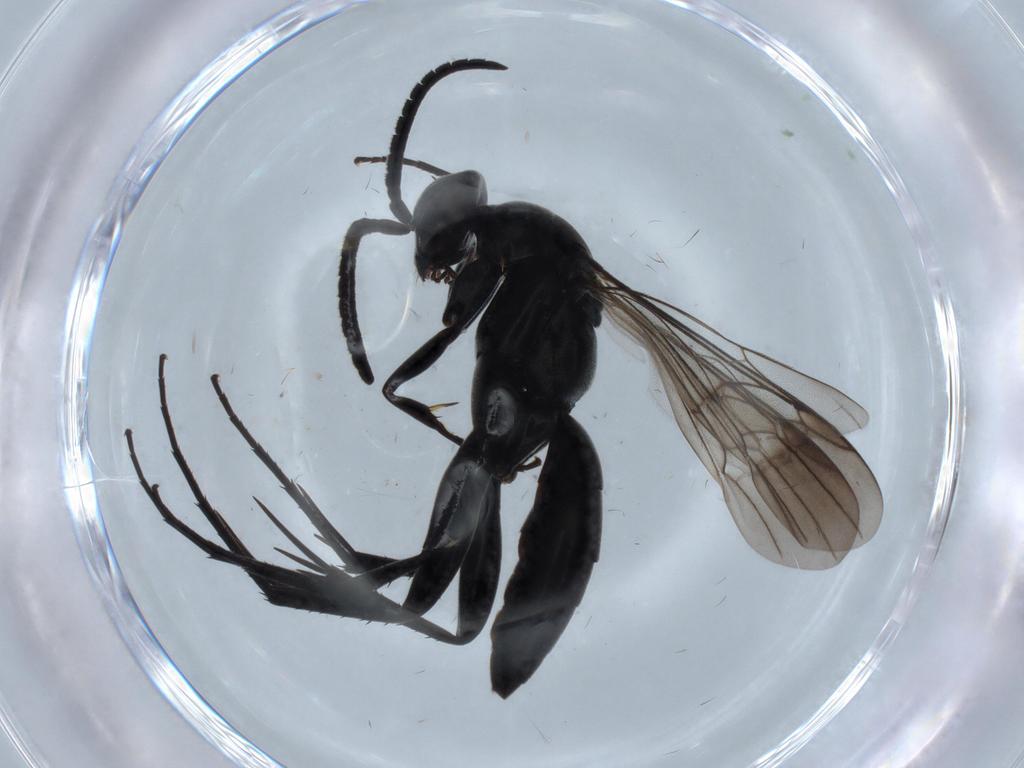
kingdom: Animalia
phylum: Arthropoda
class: Insecta
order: Hymenoptera
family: Pompilidae
